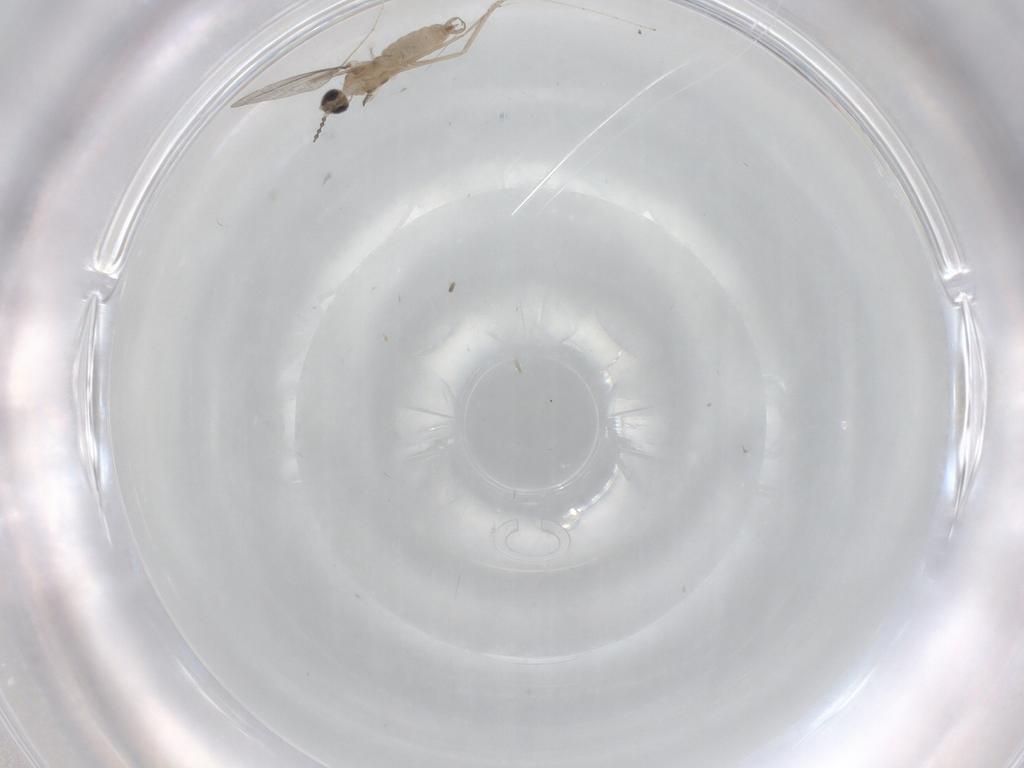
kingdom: Animalia
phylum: Arthropoda
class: Insecta
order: Diptera
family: Cecidomyiidae
